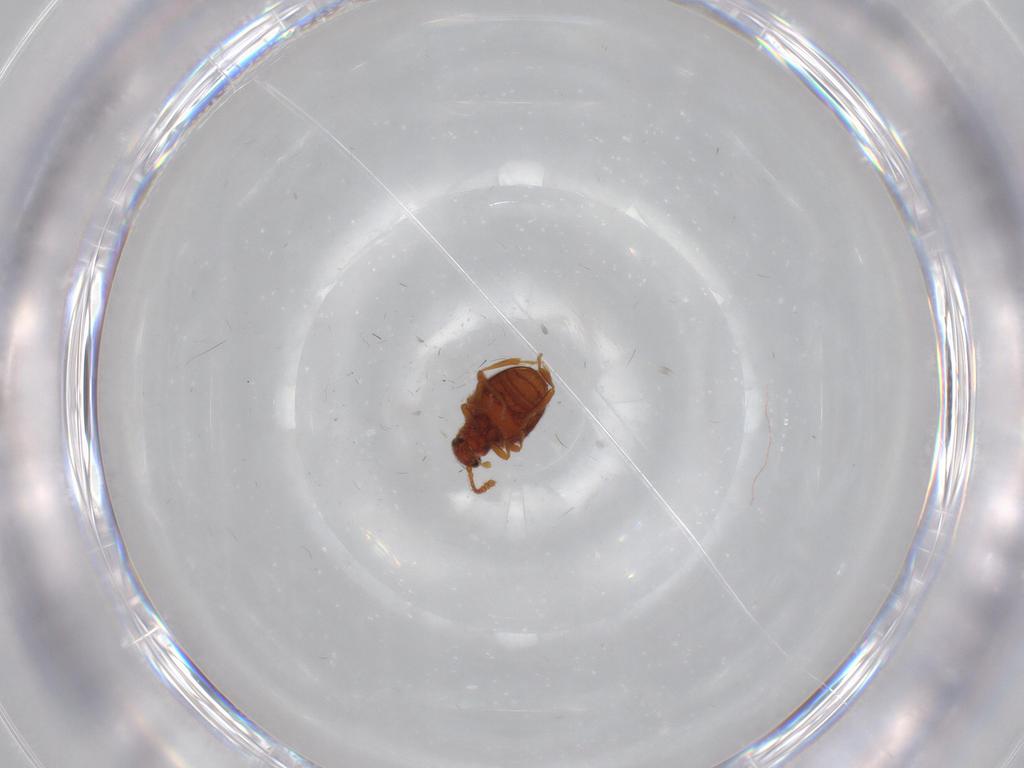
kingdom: Animalia
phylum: Arthropoda
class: Insecta
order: Coleoptera
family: Aderidae
